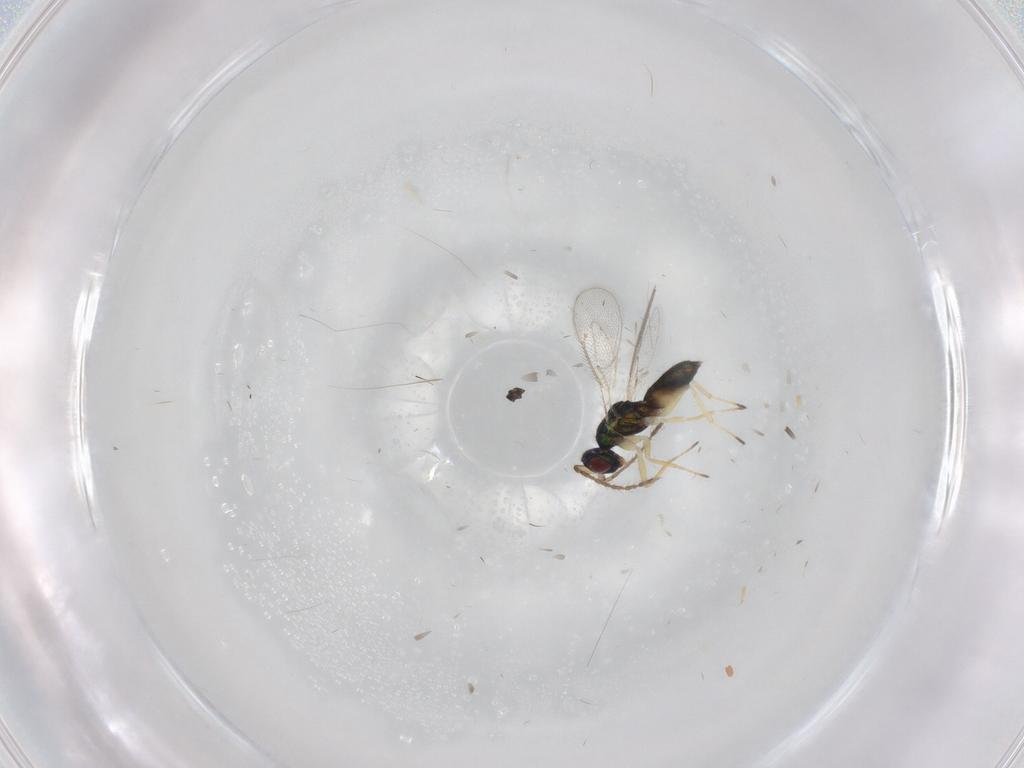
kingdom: Animalia
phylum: Arthropoda
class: Insecta
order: Hymenoptera
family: Eulophidae
